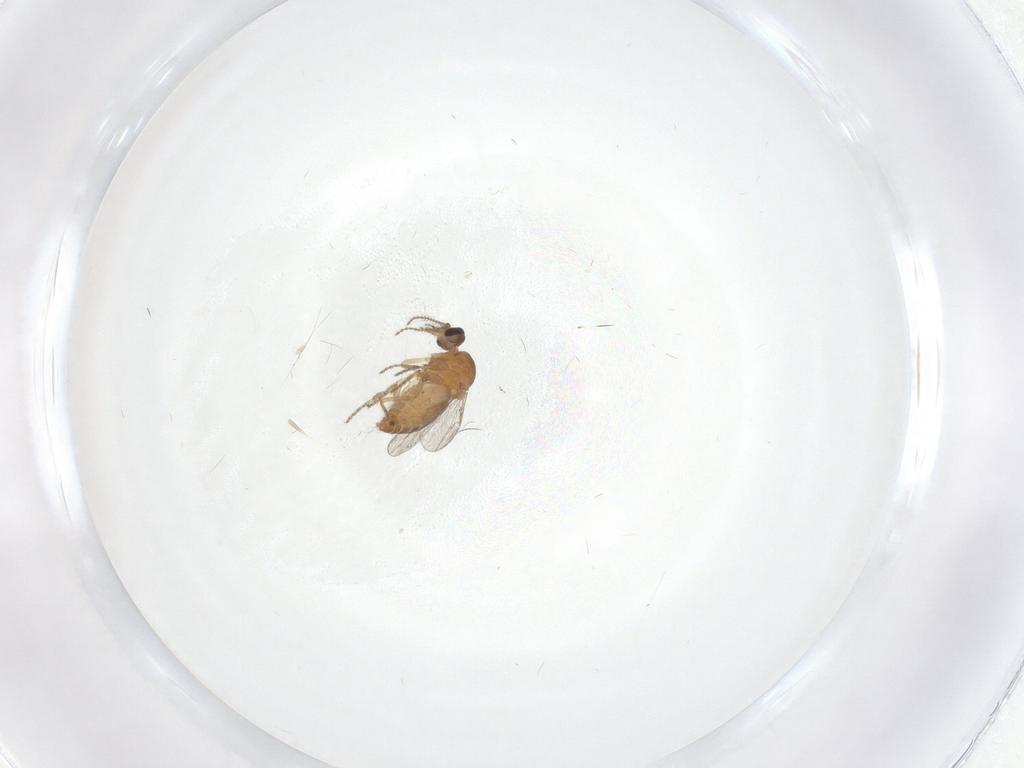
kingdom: Animalia
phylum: Arthropoda
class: Insecta
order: Diptera
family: Ceratopogonidae
